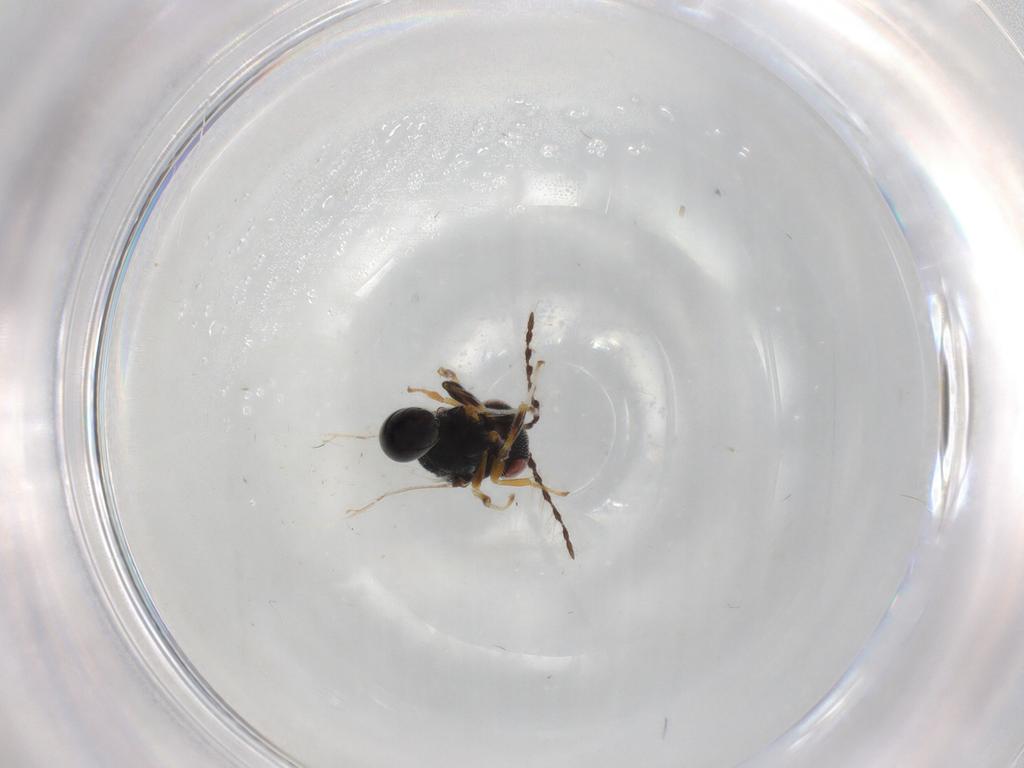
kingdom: Animalia
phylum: Arthropoda
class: Insecta
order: Hymenoptera
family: Eurytomidae
